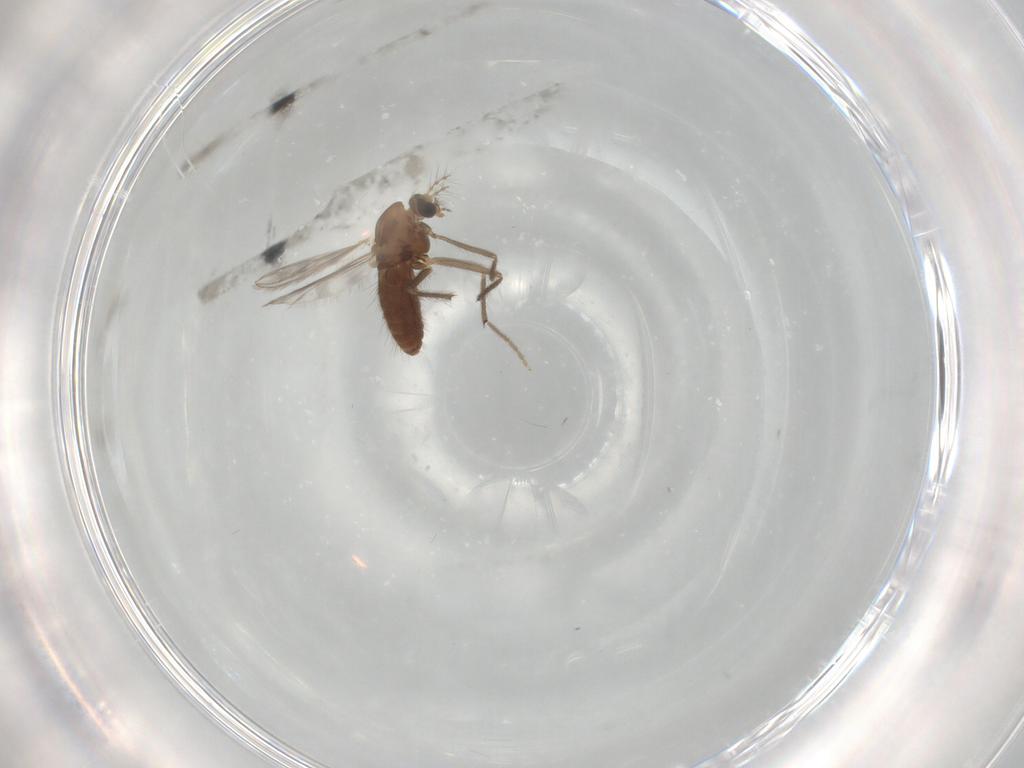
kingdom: Animalia
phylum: Arthropoda
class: Insecta
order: Diptera
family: Chironomidae
